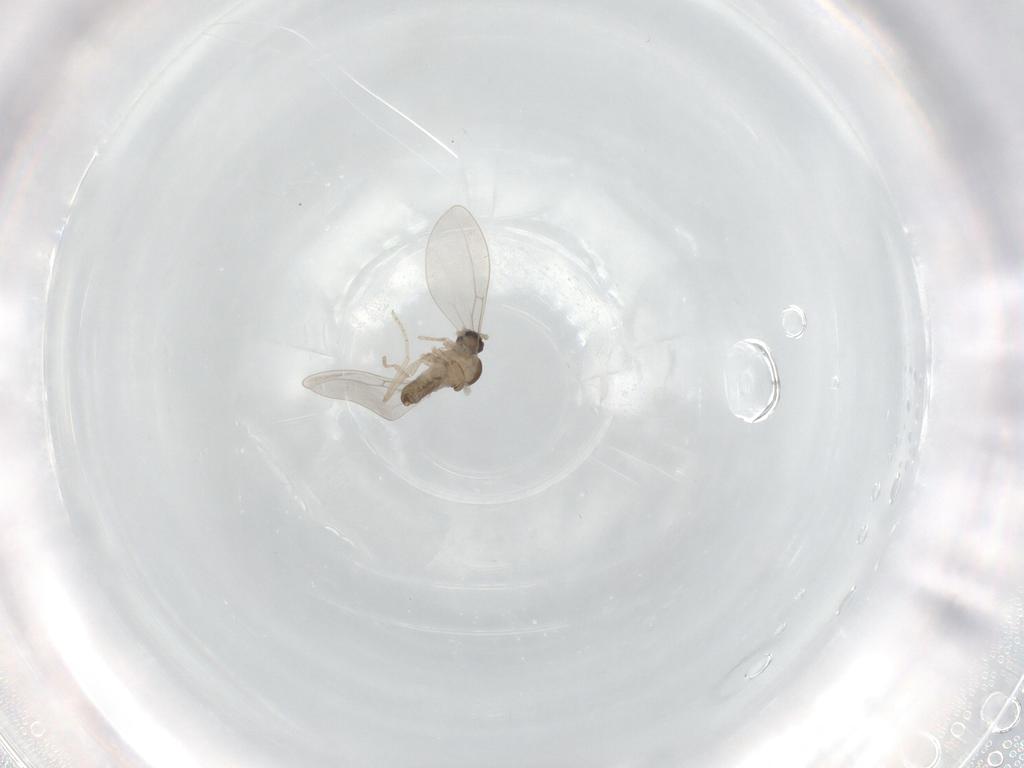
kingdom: Animalia
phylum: Arthropoda
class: Insecta
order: Diptera
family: Cecidomyiidae
